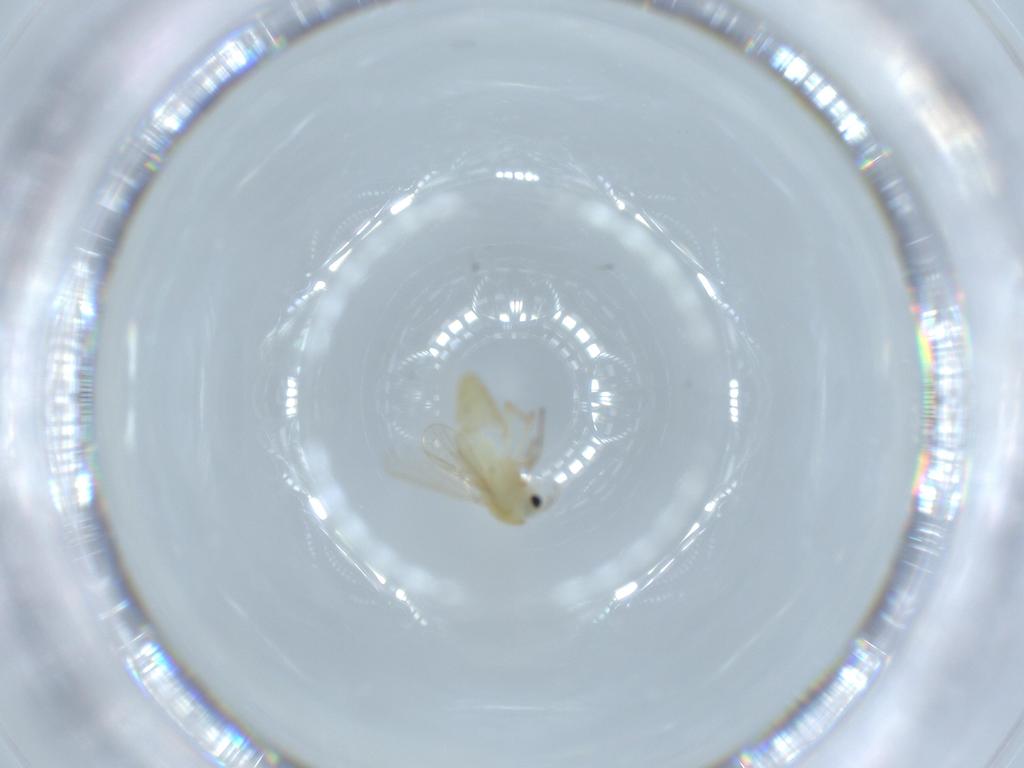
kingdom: Animalia
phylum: Arthropoda
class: Insecta
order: Diptera
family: Chironomidae
